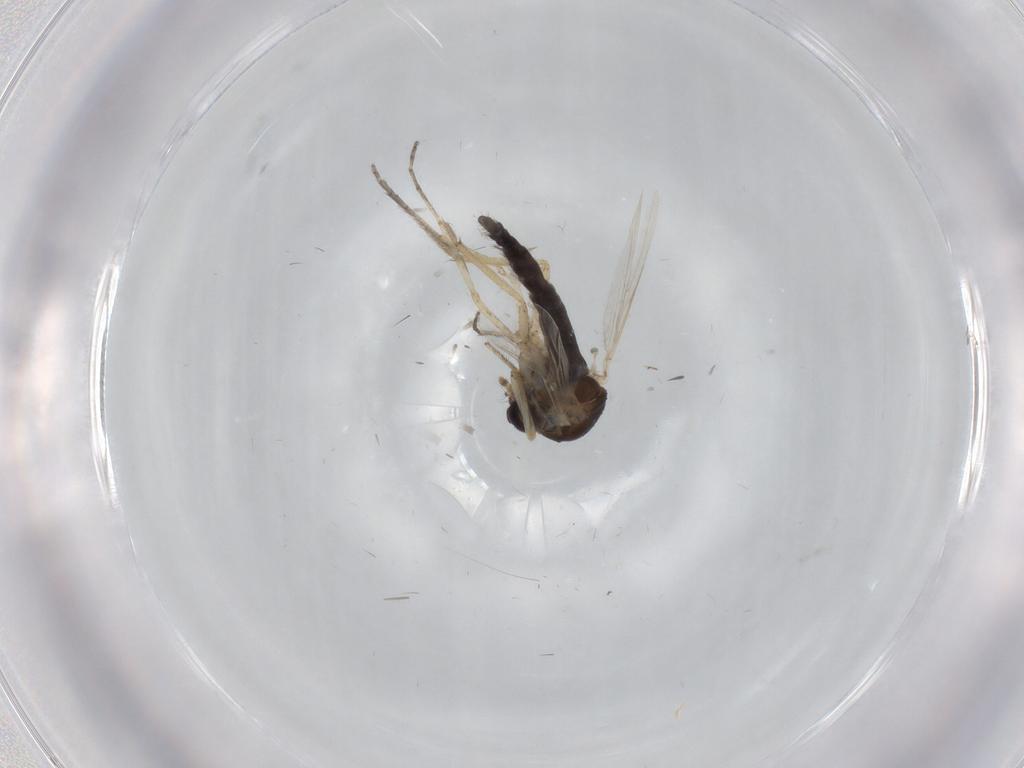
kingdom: Animalia
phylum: Arthropoda
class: Insecta
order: Diptera
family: Ceratopogonidae
